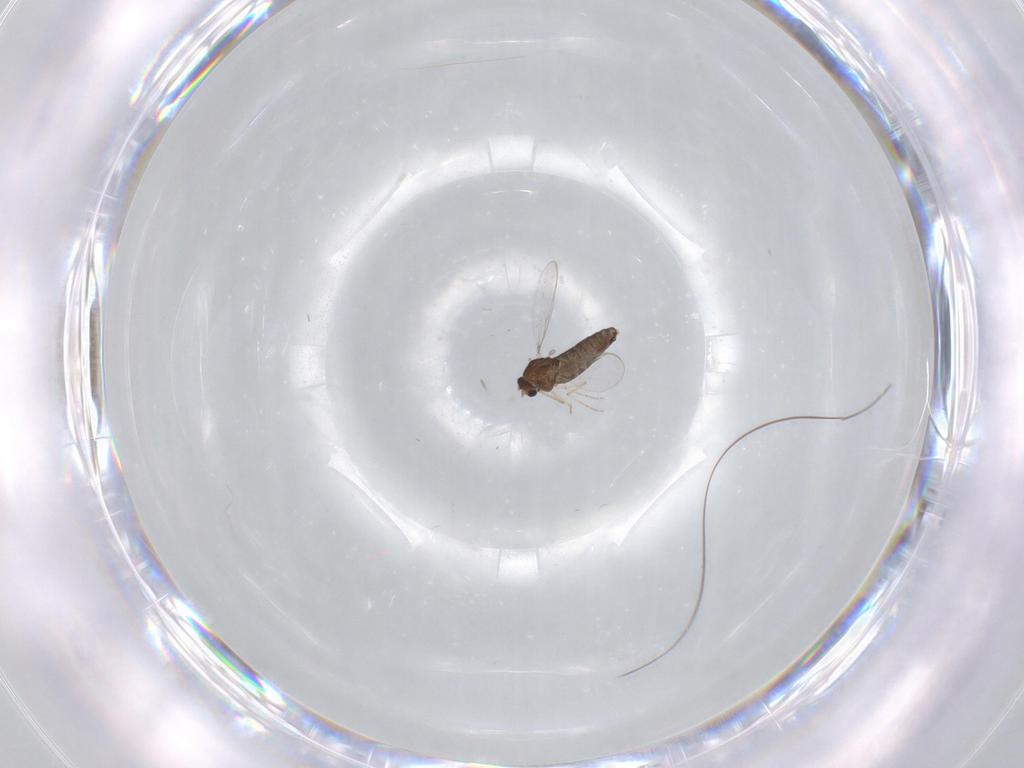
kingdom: Animalia
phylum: Arthropoda
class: Insecta
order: Diptera
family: Chironomidae
